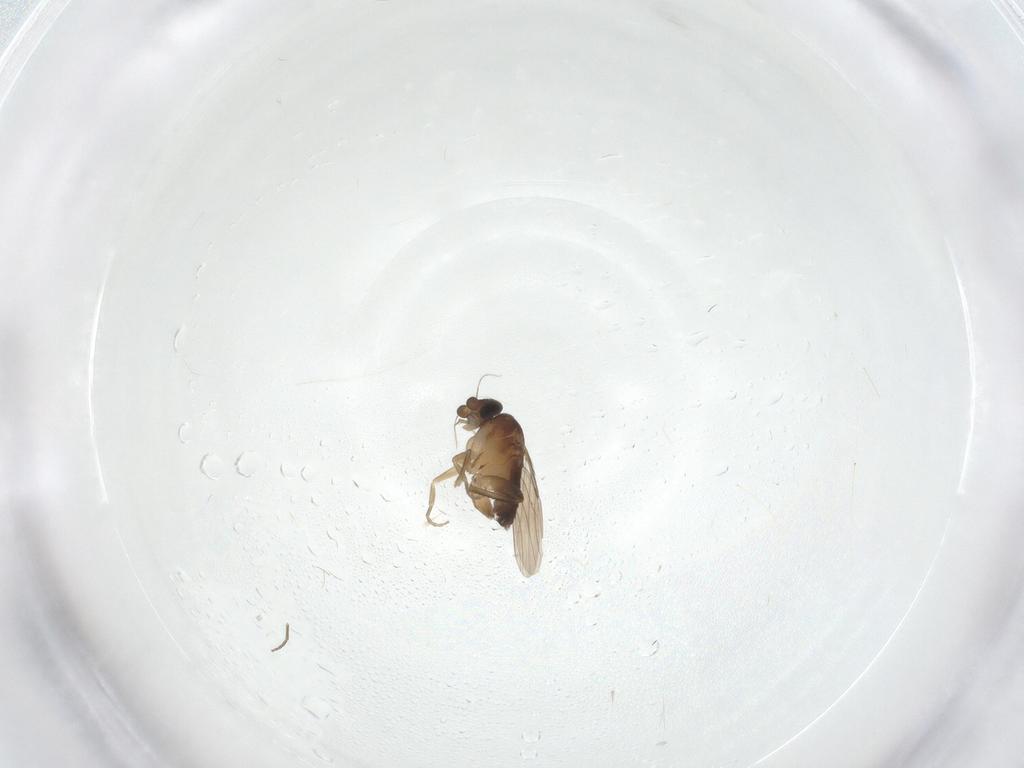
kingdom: Animalia
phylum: Arthropoda
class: Insecta
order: Diptera
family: Phoridae
